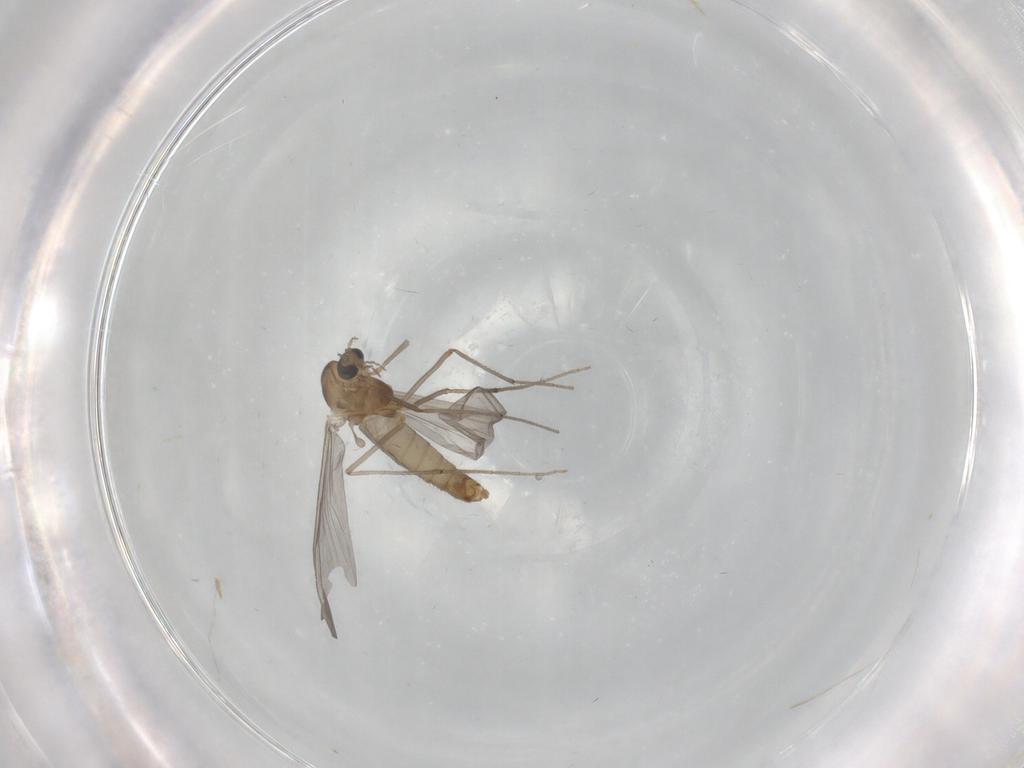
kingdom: Animalia
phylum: Arthropoda
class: Insecta
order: Diptera
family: Chironomidae
